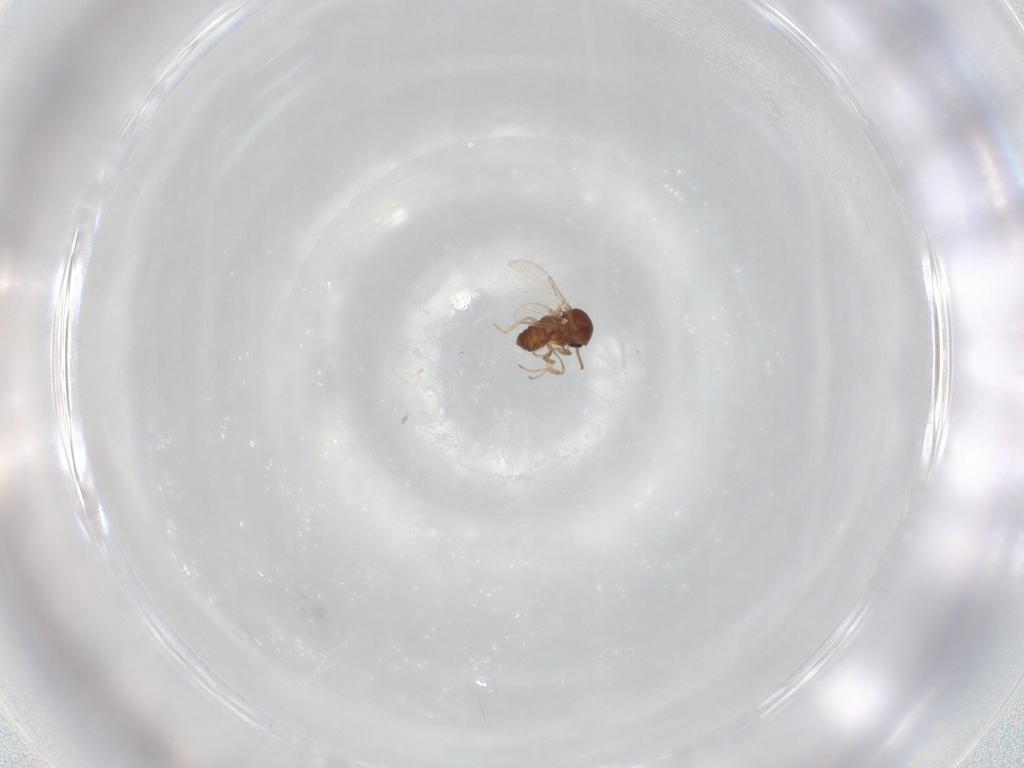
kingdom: Animalia
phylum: Arthropoda
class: Insecta
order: Diptera
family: Ceratopogonidae
